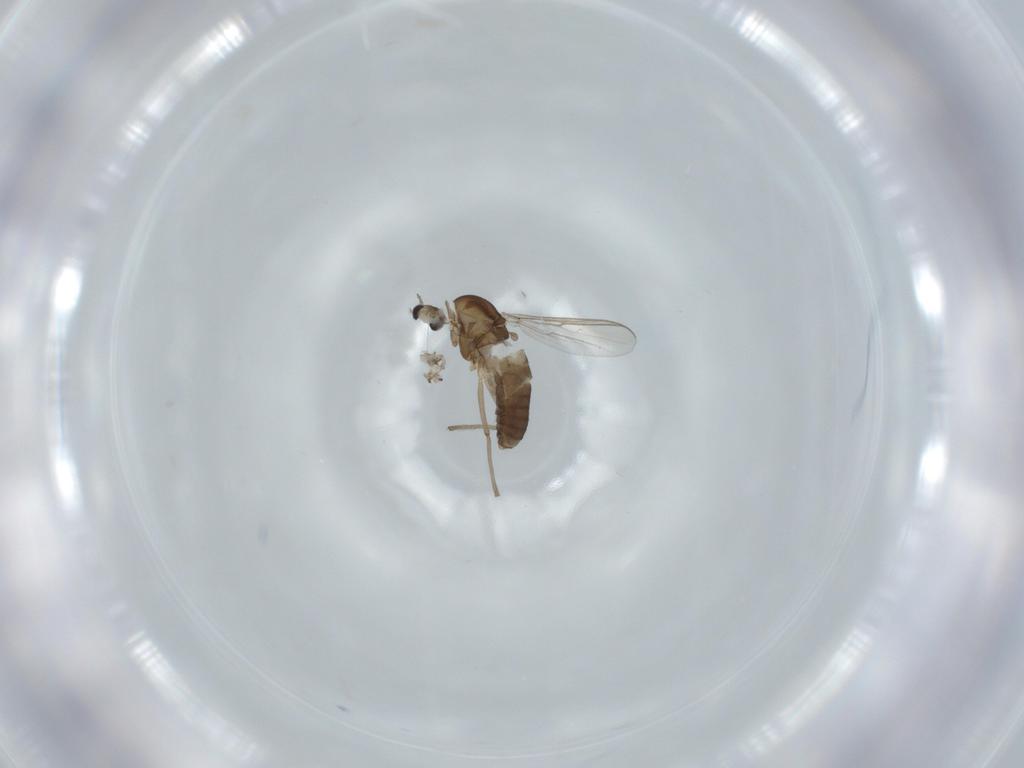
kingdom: Animalia
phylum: Arthropoda
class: Insecta
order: Diptera
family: Chironomidae
